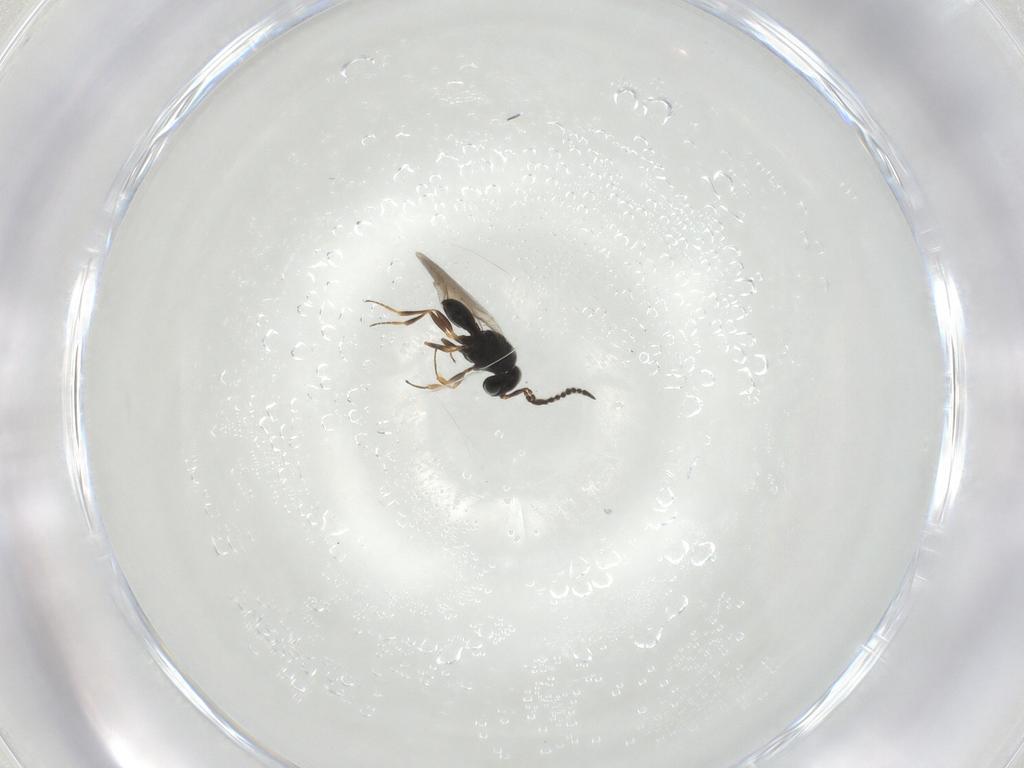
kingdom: Animalia
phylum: Arthropoda
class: Insecta
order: Hymenoptera
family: Scelionidae
